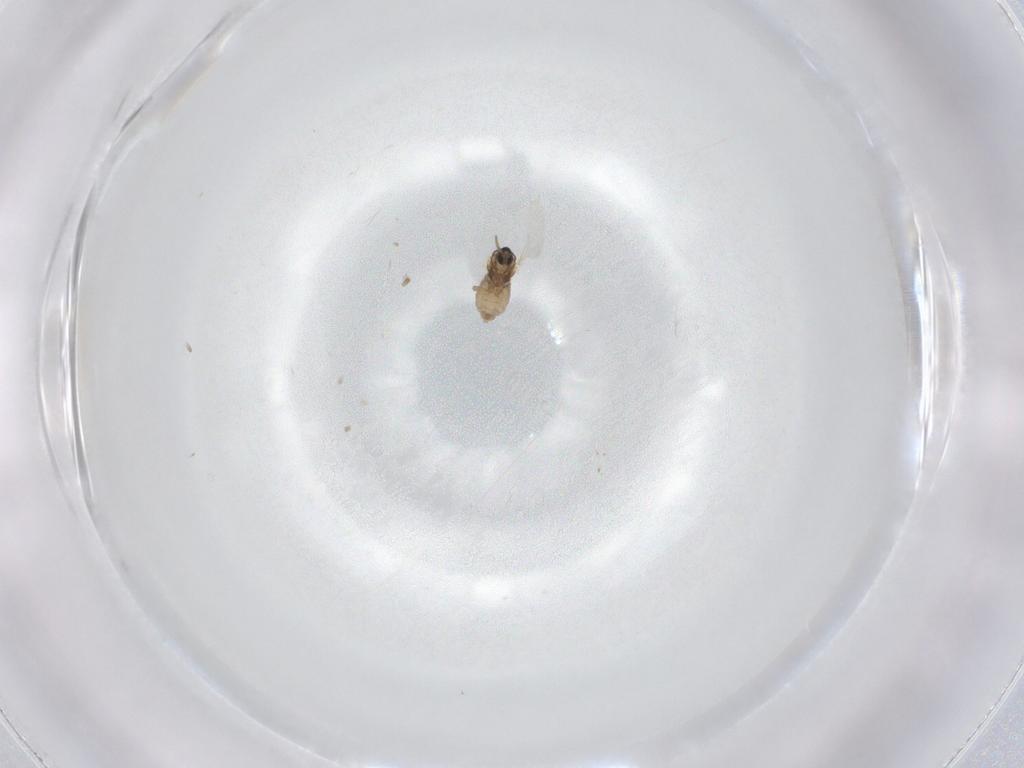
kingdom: Animalia
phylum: Arthropoda
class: Insecta
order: Diptera
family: Cecidomyiidae
